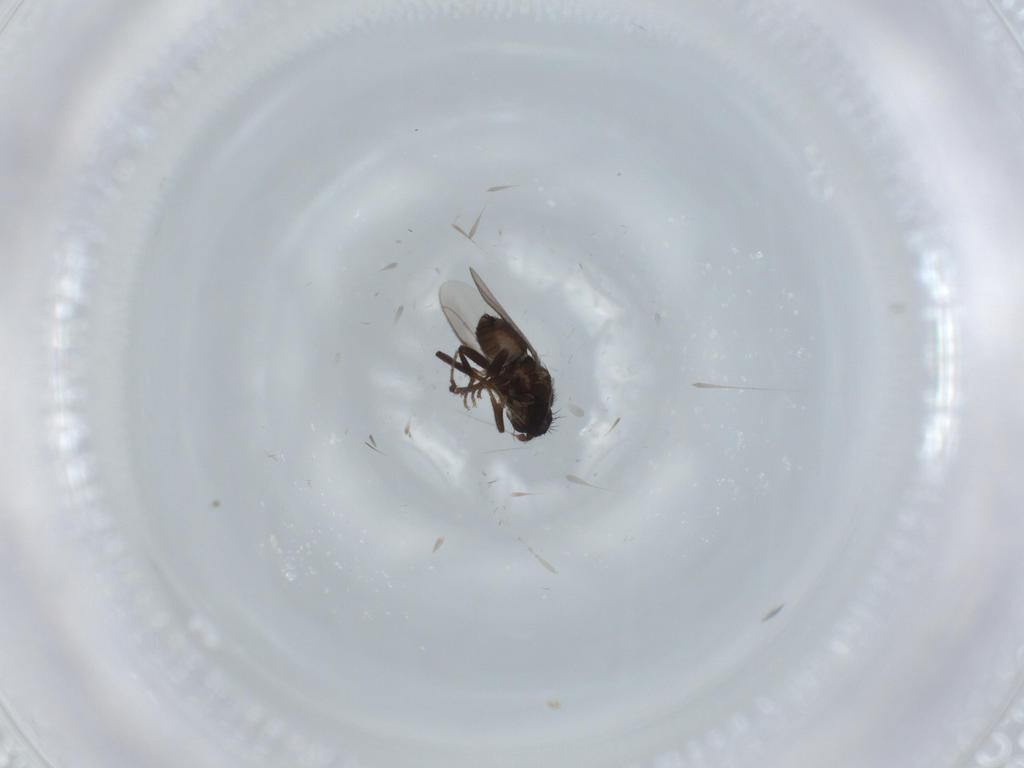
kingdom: Animalia
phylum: Arthropoda
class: Insecta
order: Diptera
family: Sphaeroceridae
